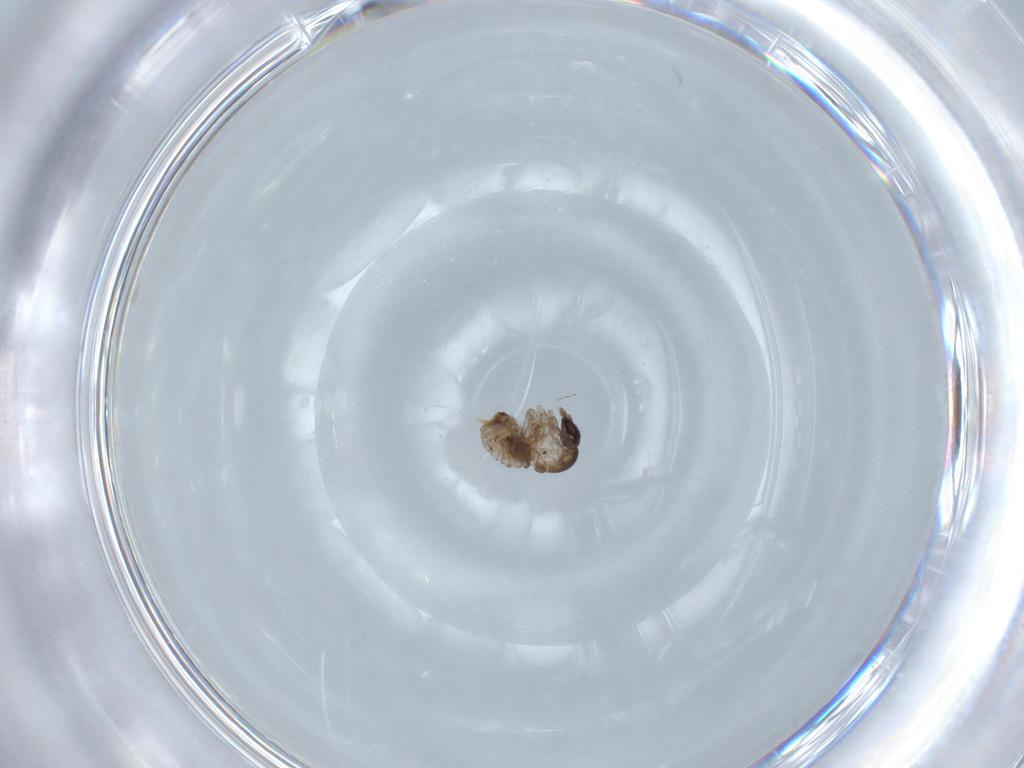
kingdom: Animalia
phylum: Arthropoda
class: Insecta
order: Diptera
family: Psychodidae
